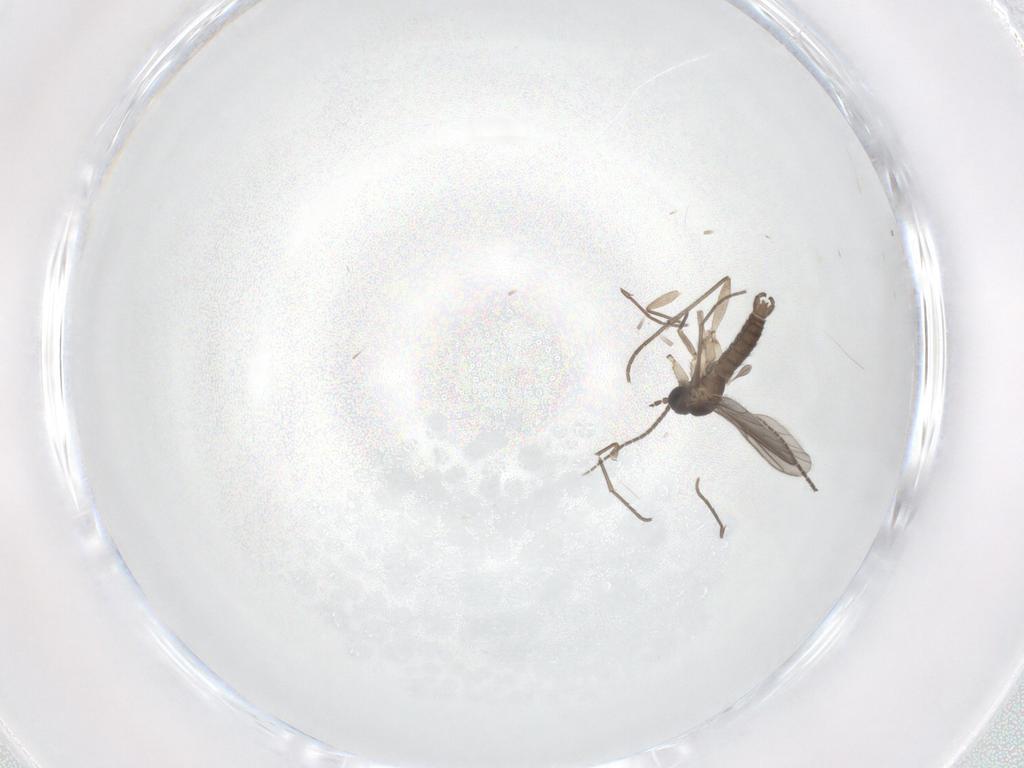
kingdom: Animalia
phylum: Arthropoda
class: Insecta
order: Diptera
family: Sciaridae
